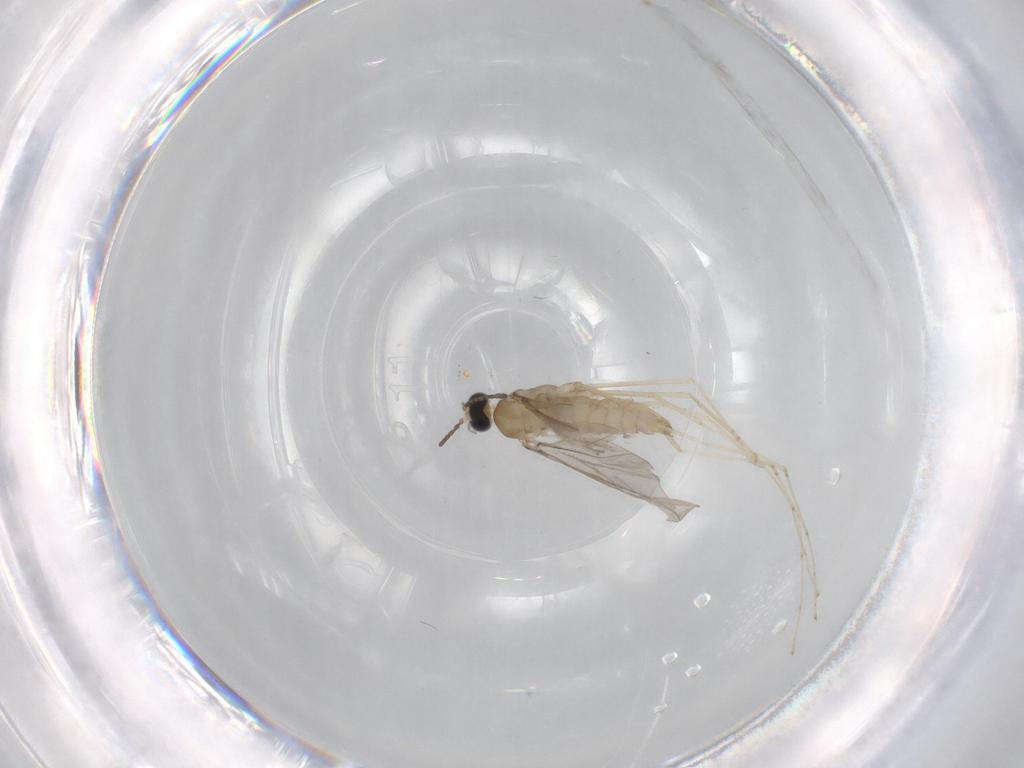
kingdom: Animalia
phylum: Arthropoda
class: Insecta
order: Diptera
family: Cecidomyiidae
